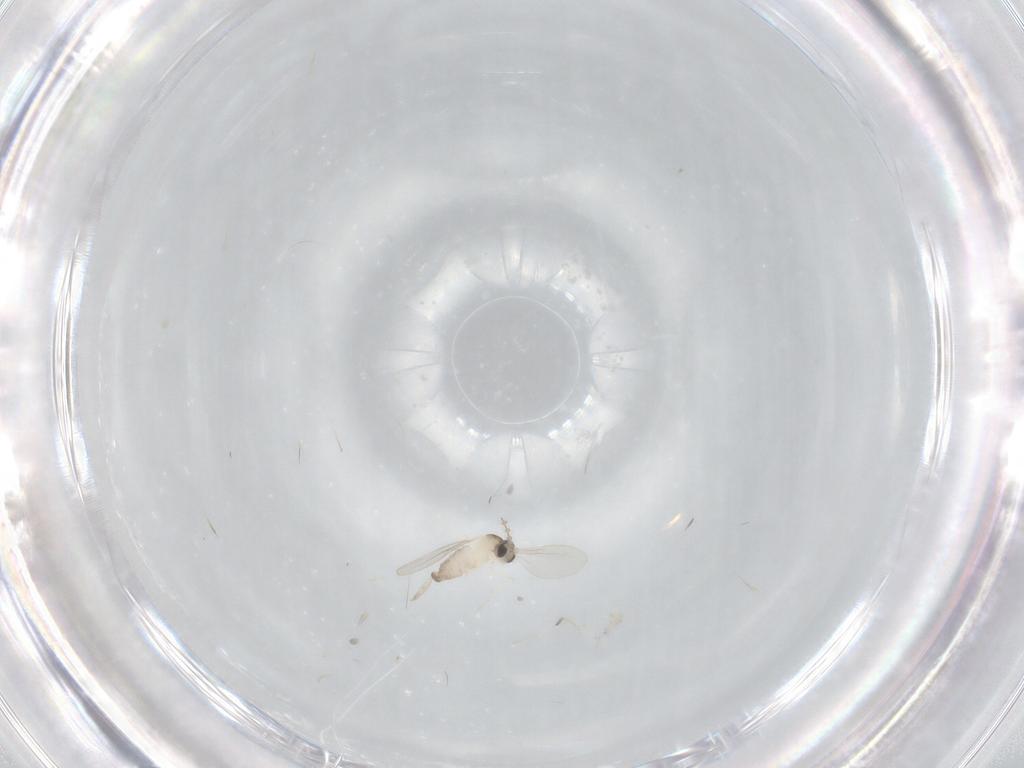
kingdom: Animalia
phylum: Arthropoda
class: Insecta
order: Diptera
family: Cecidomyiidae
